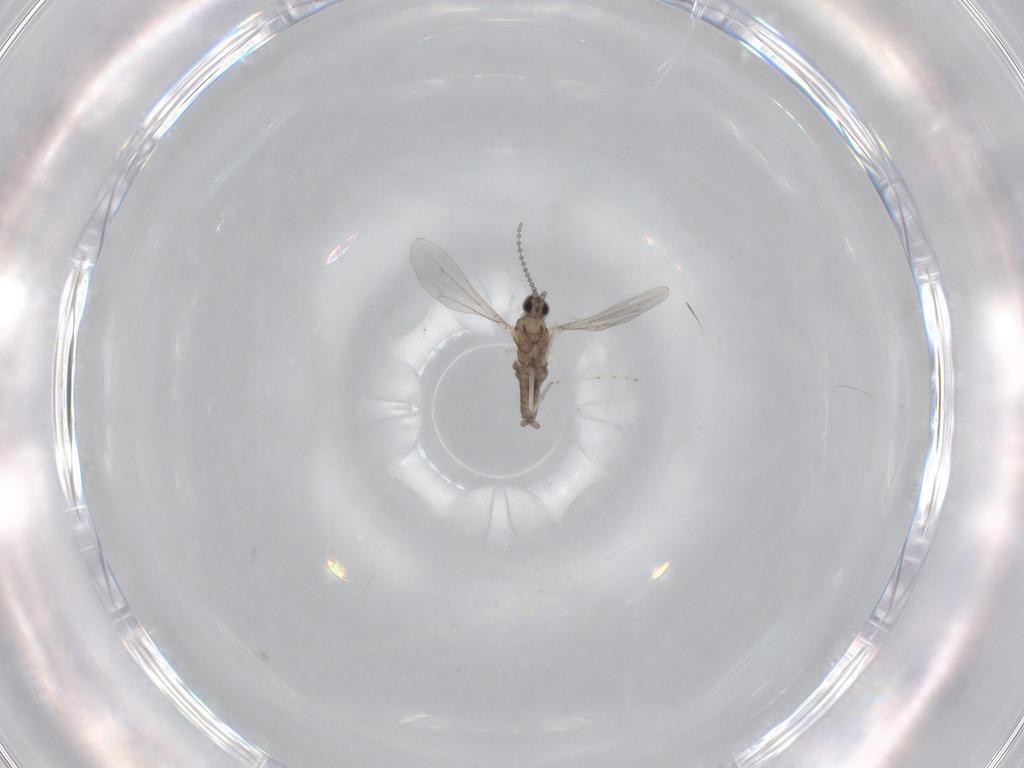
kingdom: Animalia
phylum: Arthropoda
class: Insecta
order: Diptera
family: Cecidomyiidae
